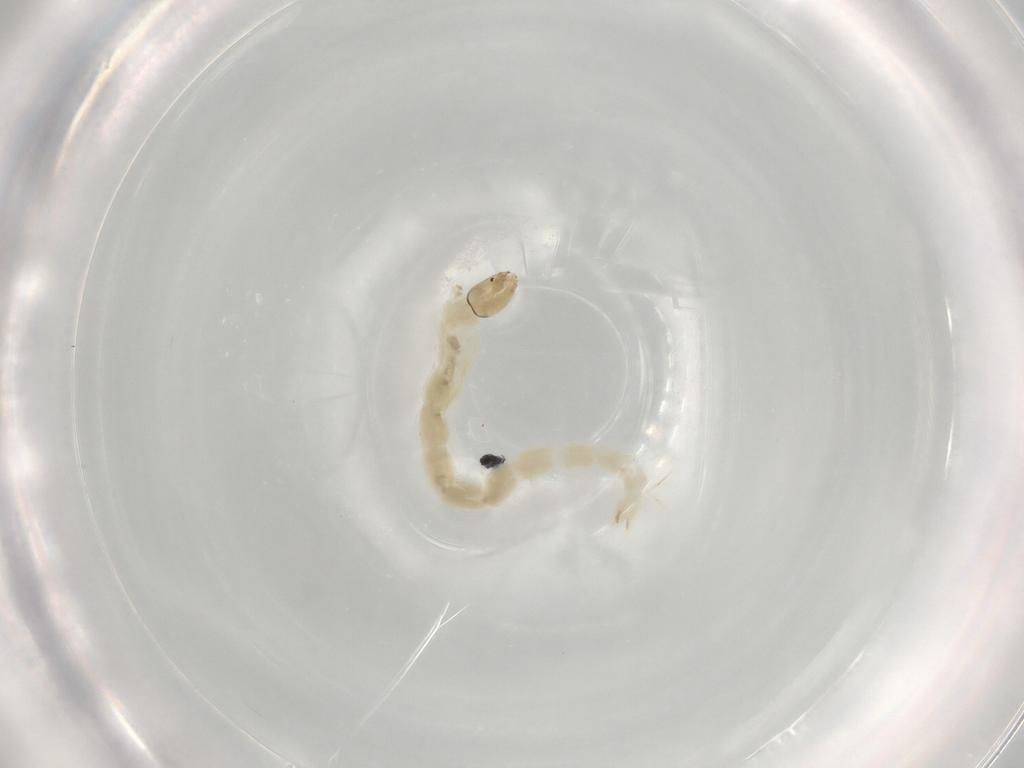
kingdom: Animalia
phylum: Arthropoda
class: Insecta
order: Diptera
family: Chironomidae
